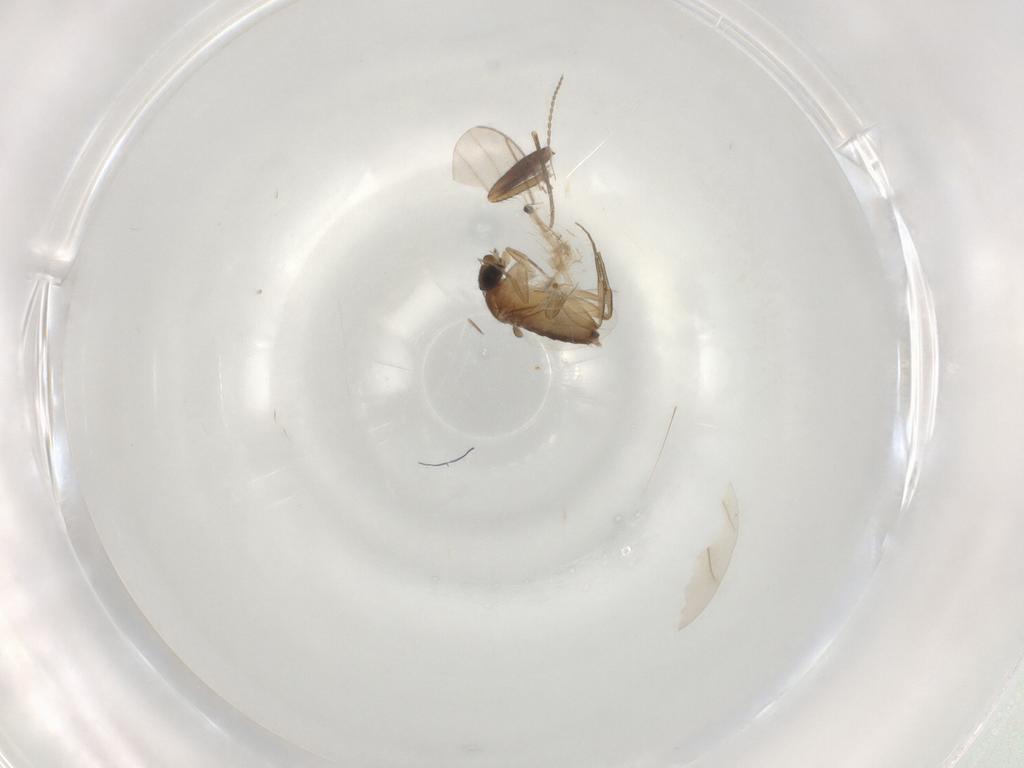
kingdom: Animalia
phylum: Arthropoda
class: Insecta
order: Diptera
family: Phoridae
